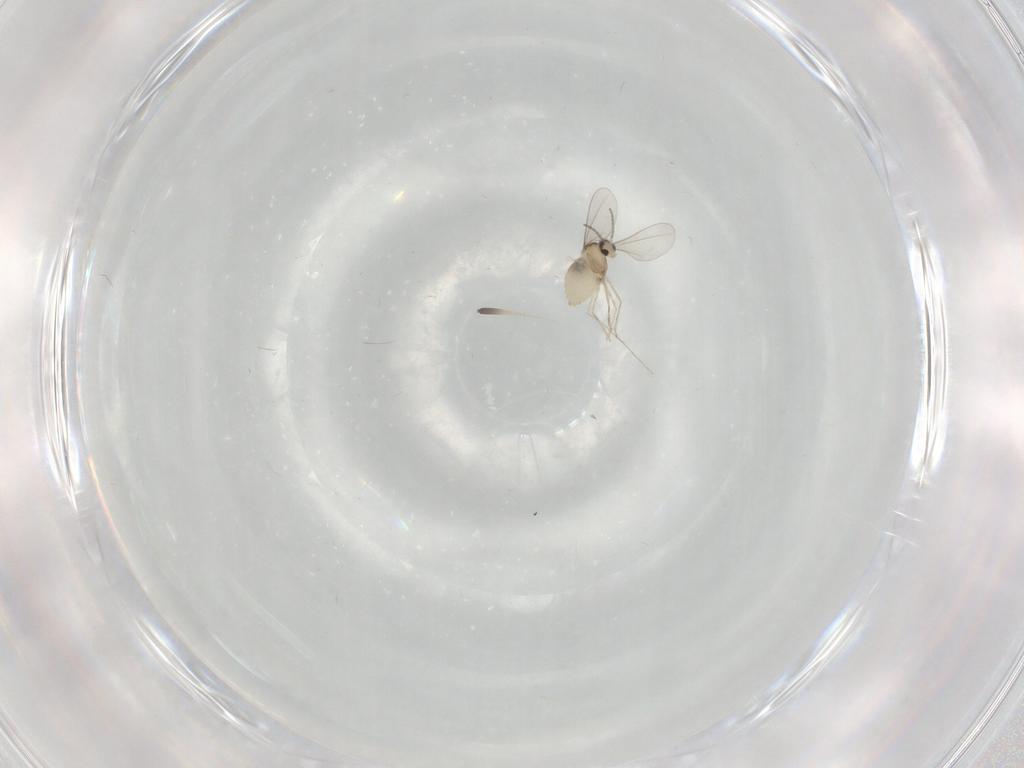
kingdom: Animalia
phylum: Arthropoda
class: Insecta
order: Diptera
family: Cecidomyiidae
